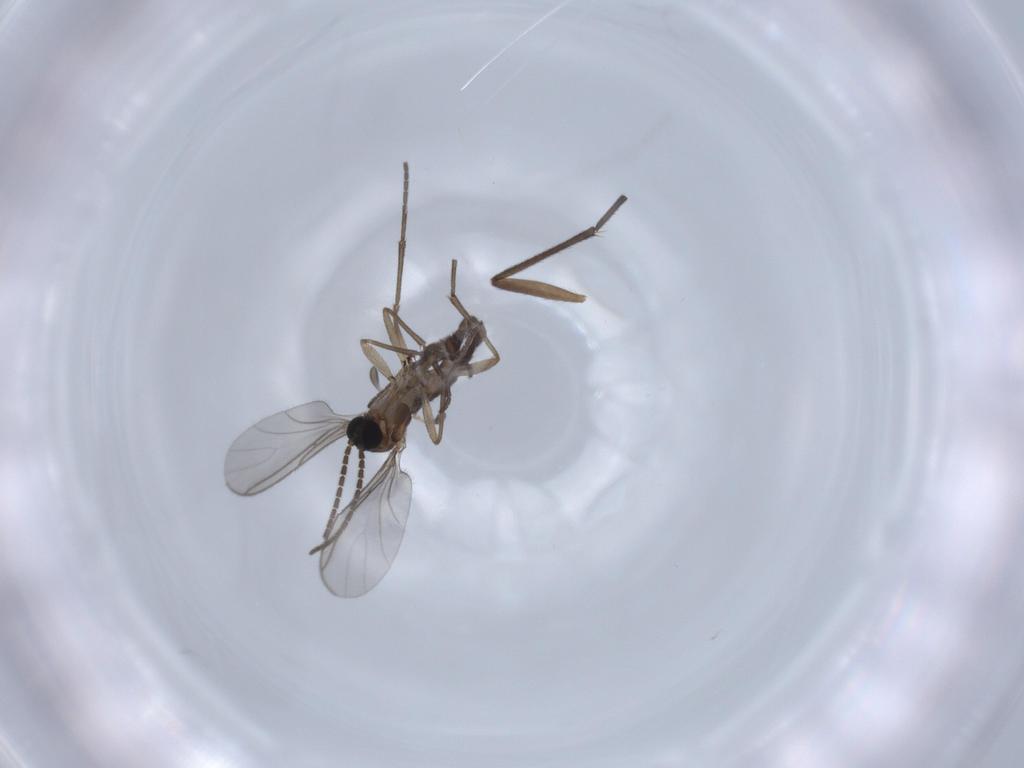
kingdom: Animalia
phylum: Arthropoda
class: Insecta
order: Diptera
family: Sciaridae
